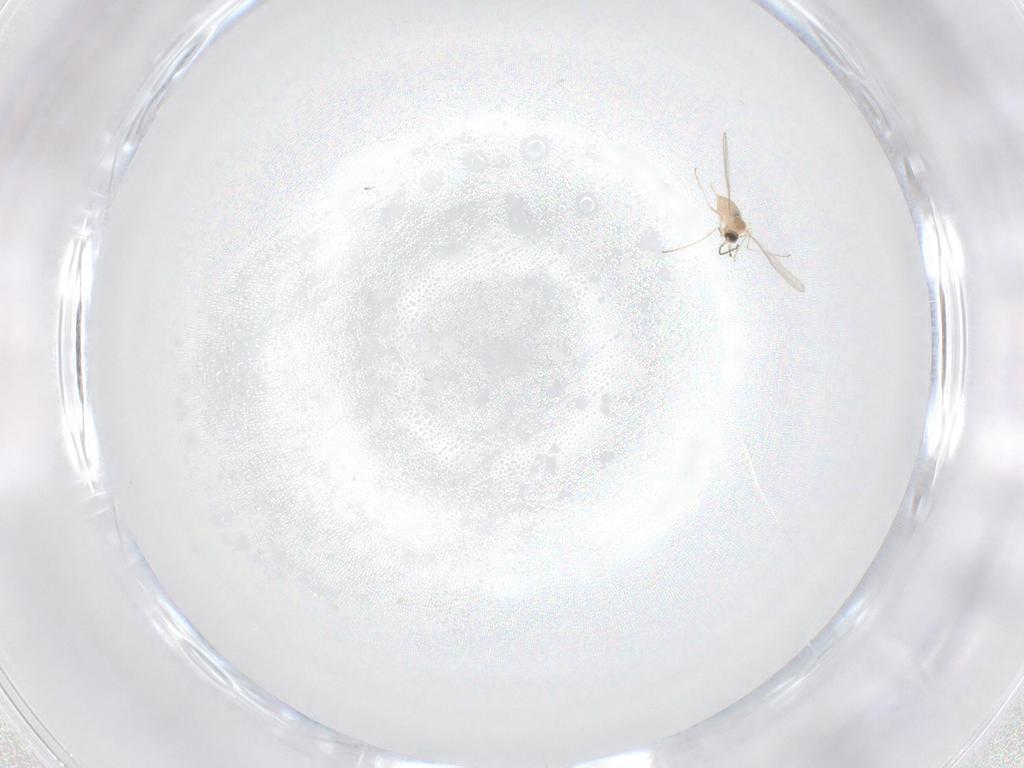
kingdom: Animalia
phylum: Arthropoda
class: Insecta
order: Diptera
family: Cecidomyiidae
